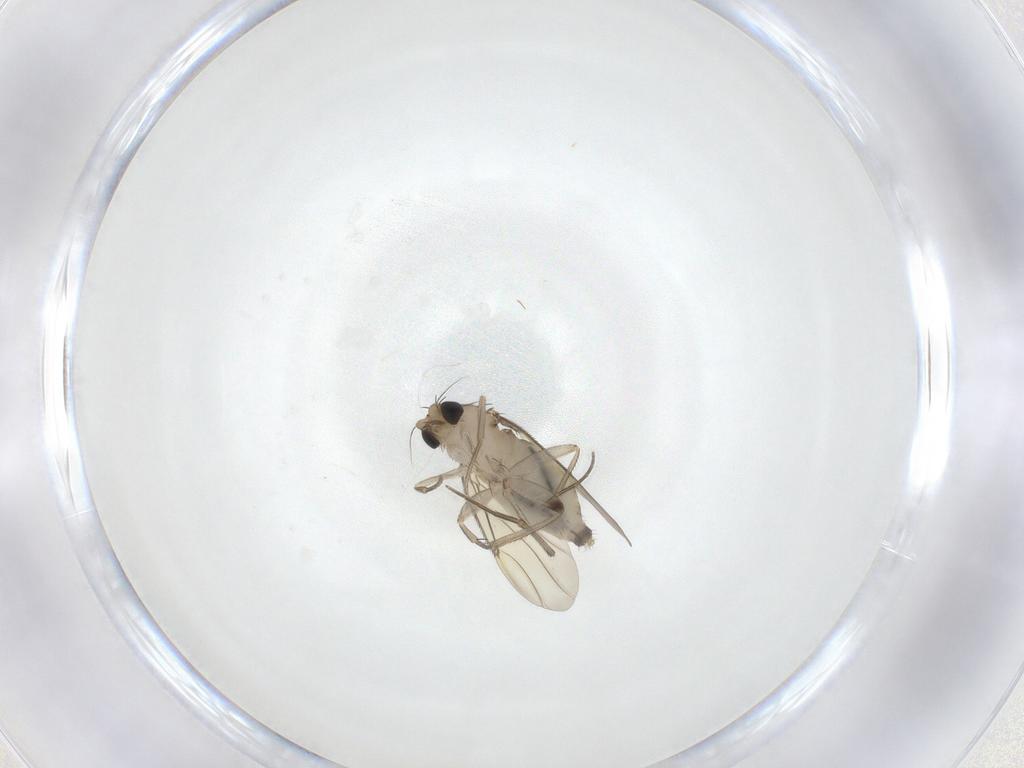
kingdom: Animalia
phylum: Arthropoda
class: Insecta
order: Diptera
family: Phoridae
